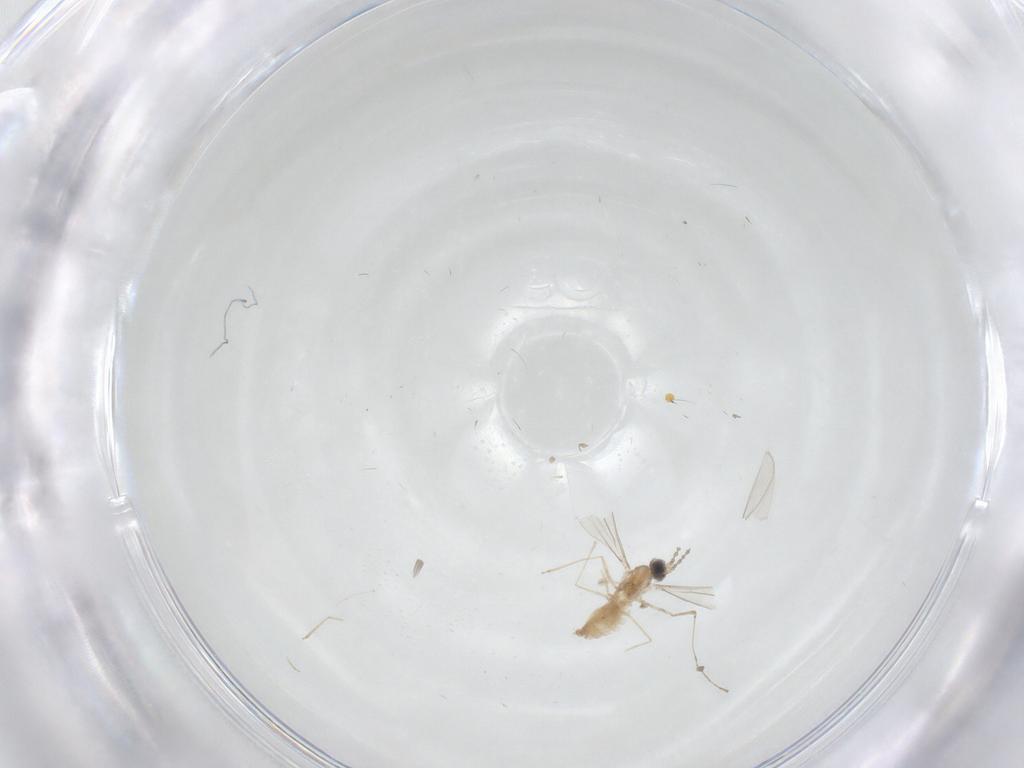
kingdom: Animalia
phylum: Arthropoda
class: Insecta
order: Diptera
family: Cecidomyiidae
